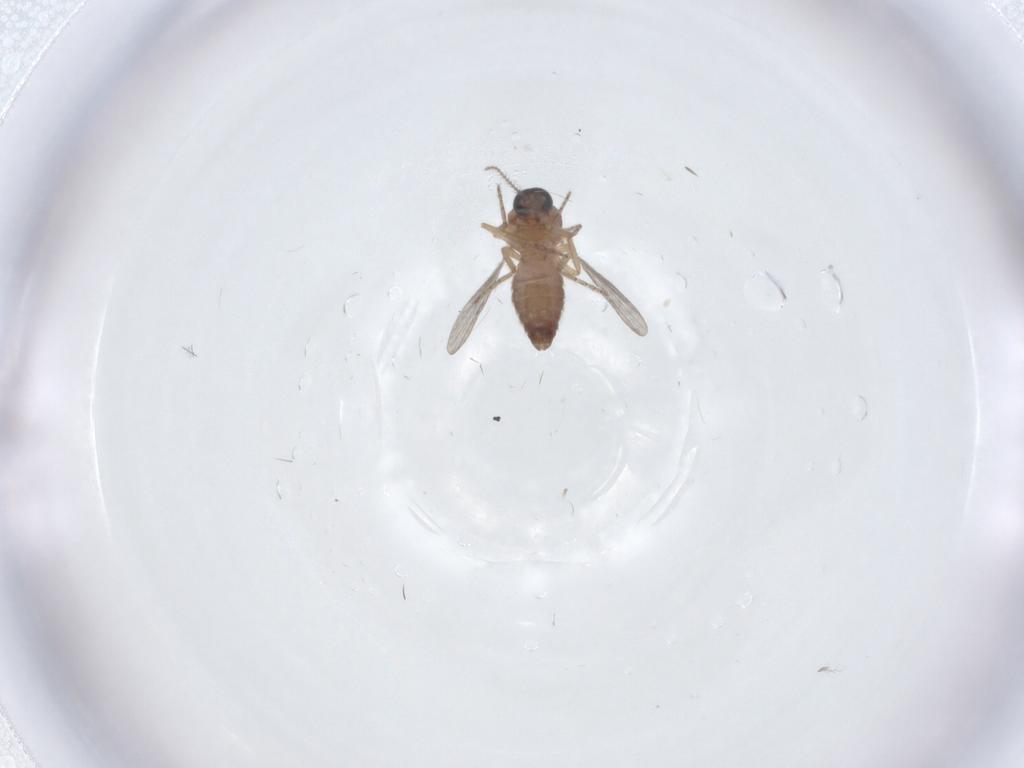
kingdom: Animalia
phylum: Arthropoda
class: Insecta
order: Diptera
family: Ceratopogonidae
